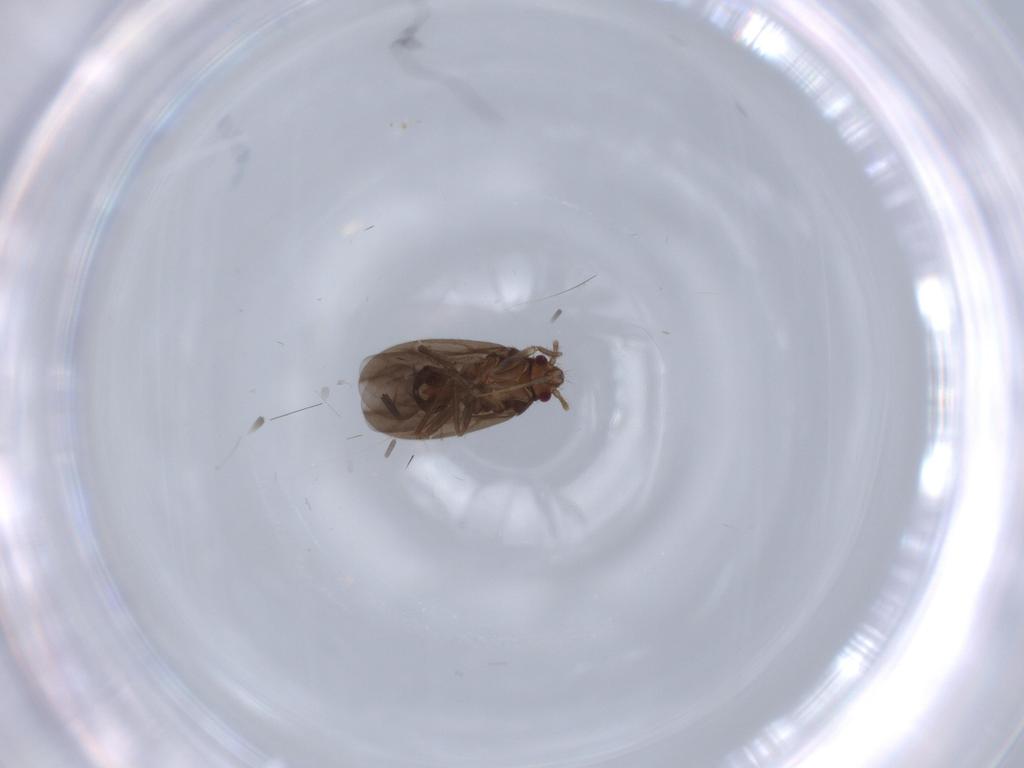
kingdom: Animalia
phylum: Arthropoda
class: Insecta
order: Hemiptera
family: Ceratocombidae
